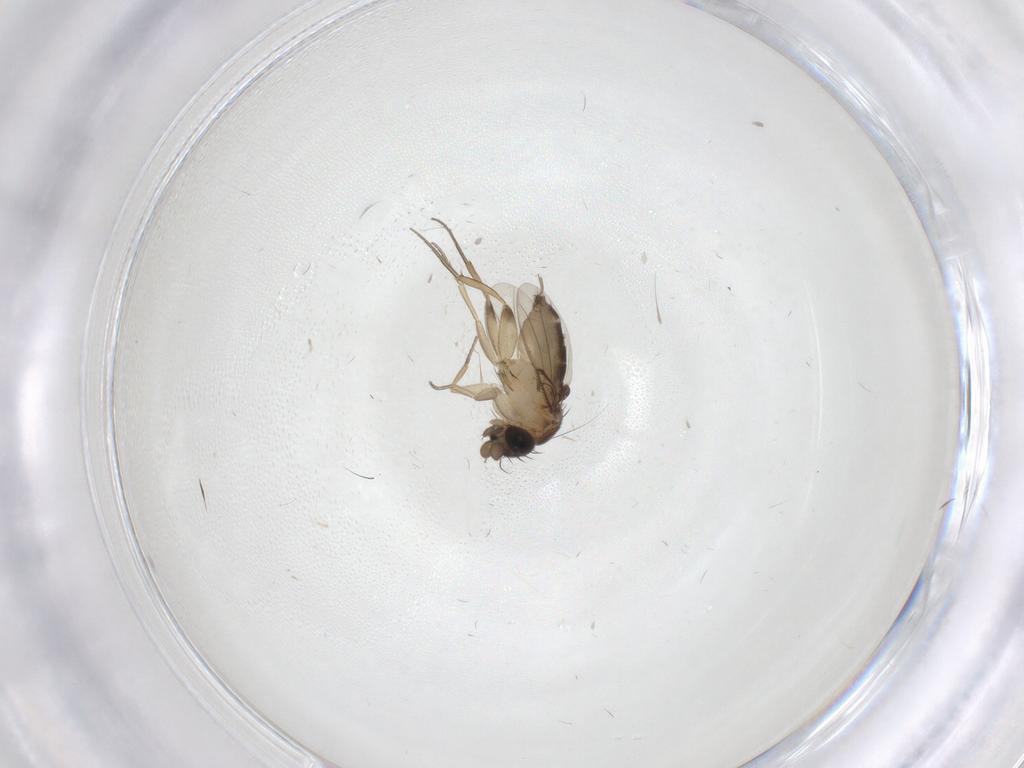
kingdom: Animalia
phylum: Arthropoda
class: Insecta
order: Diptera
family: Phoridae
